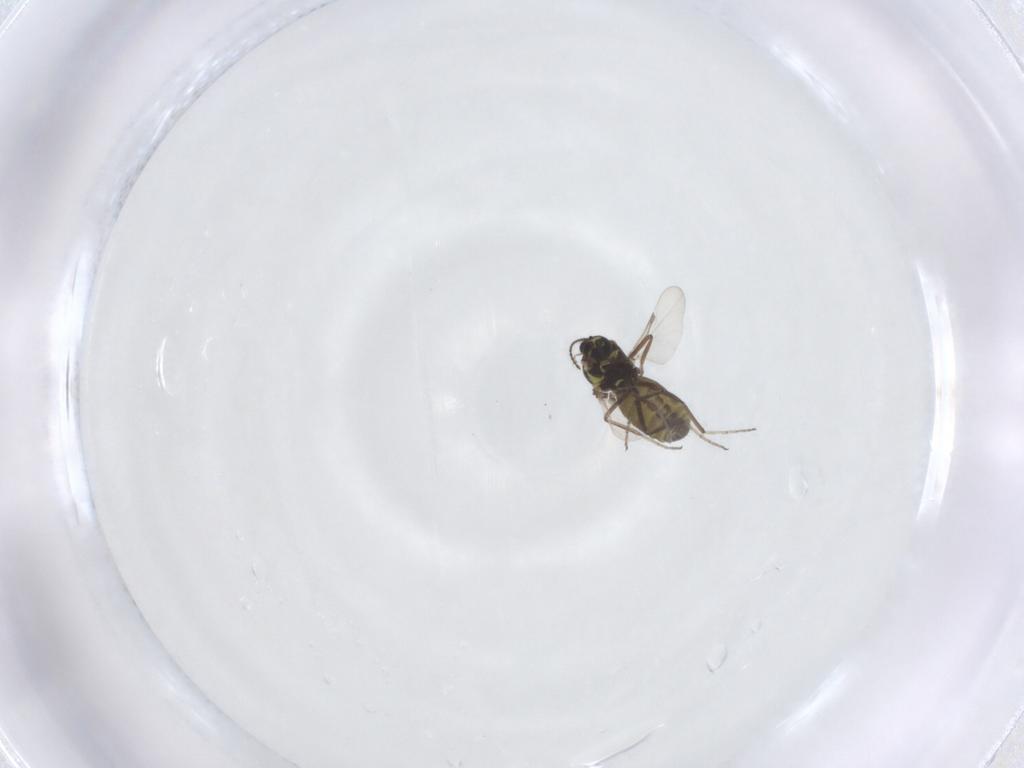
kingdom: Animalia
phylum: Arthropoda
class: Insecta
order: Diptera
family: Ceratopogonidae
